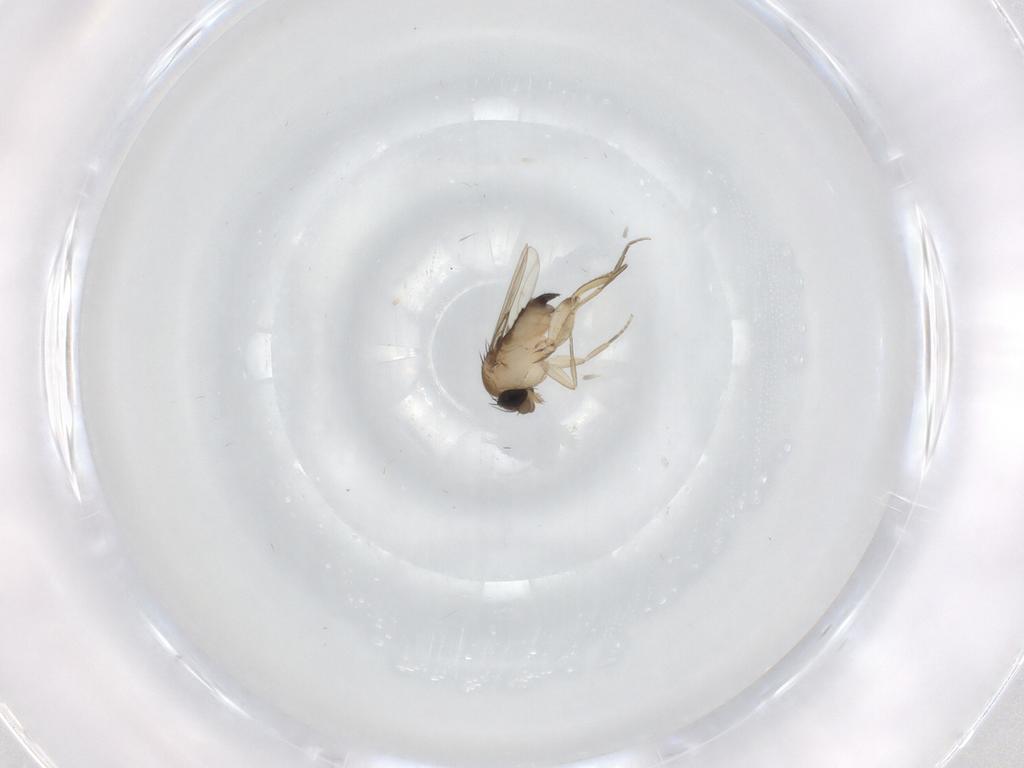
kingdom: Animalia
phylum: Arthropoda
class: Insecta
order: Diptera
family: Phoridae
